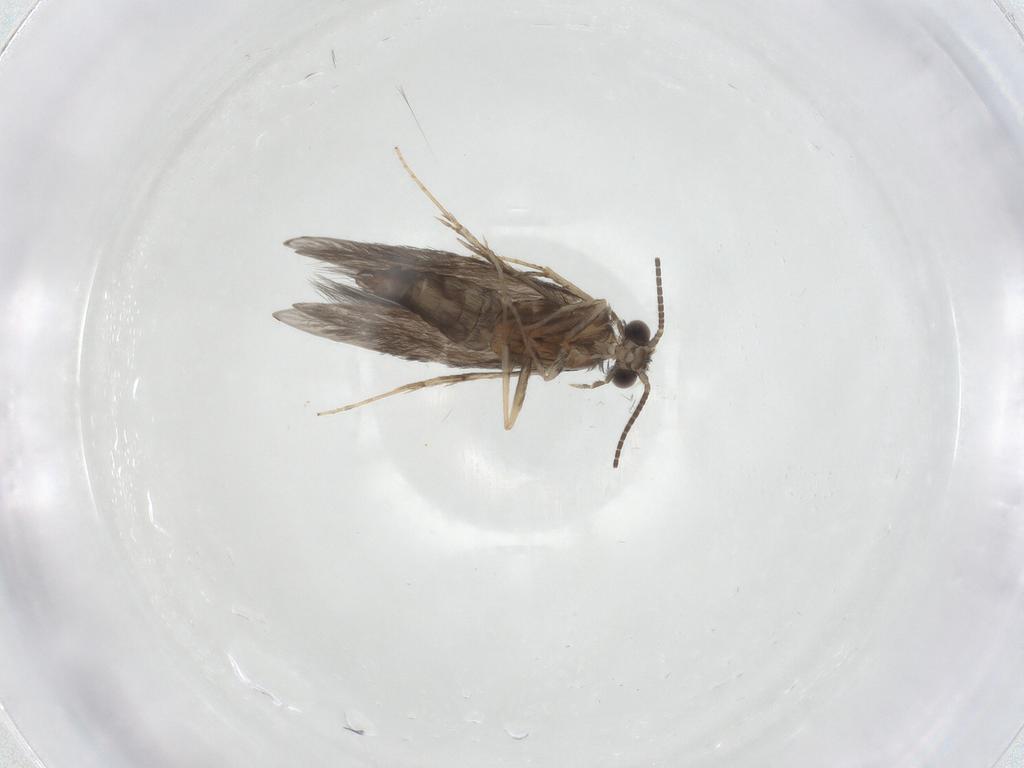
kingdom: Animalia
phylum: Arthropoda
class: Insecta
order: Trichoptera
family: Hydroptilidae
